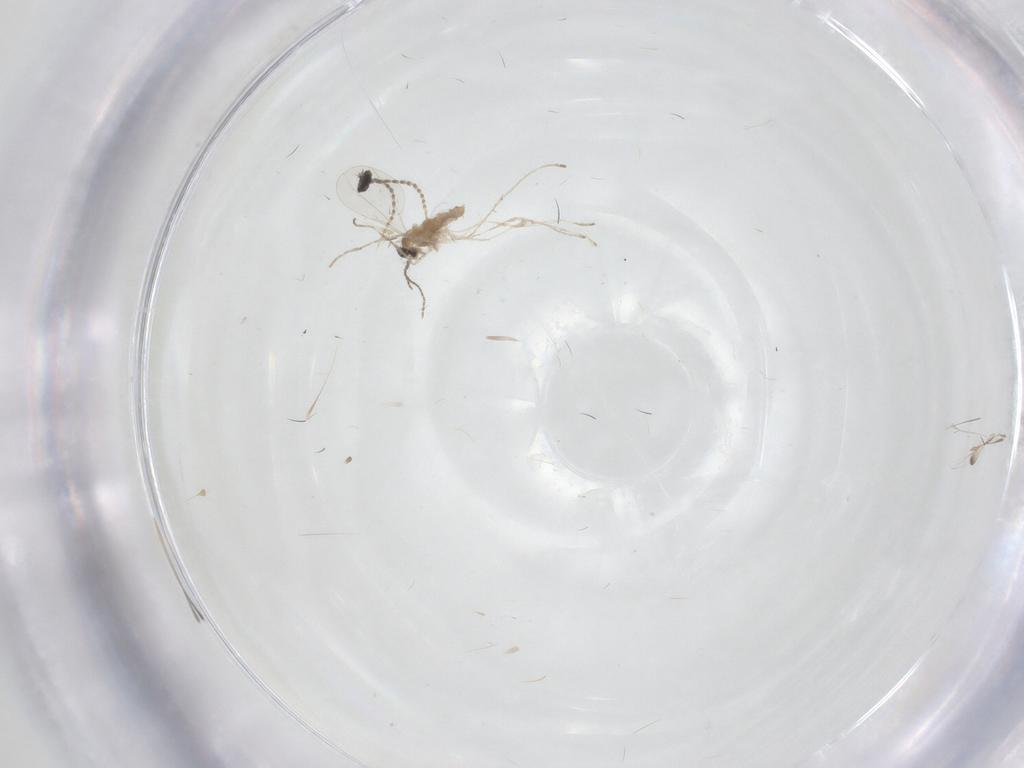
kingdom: Animalia
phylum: Arthropoda
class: Insecta
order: Diptera
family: Cecidomyiidae
